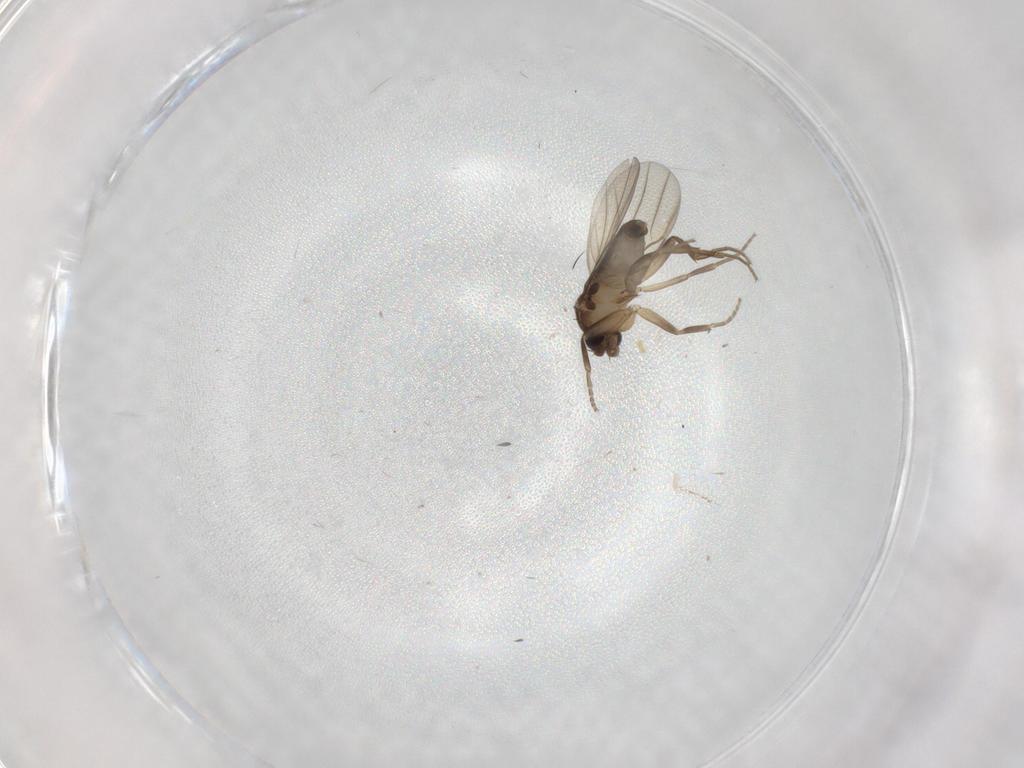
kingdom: Animalia
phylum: Arthropoda
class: Insecta
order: Diptera
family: Phoridae
